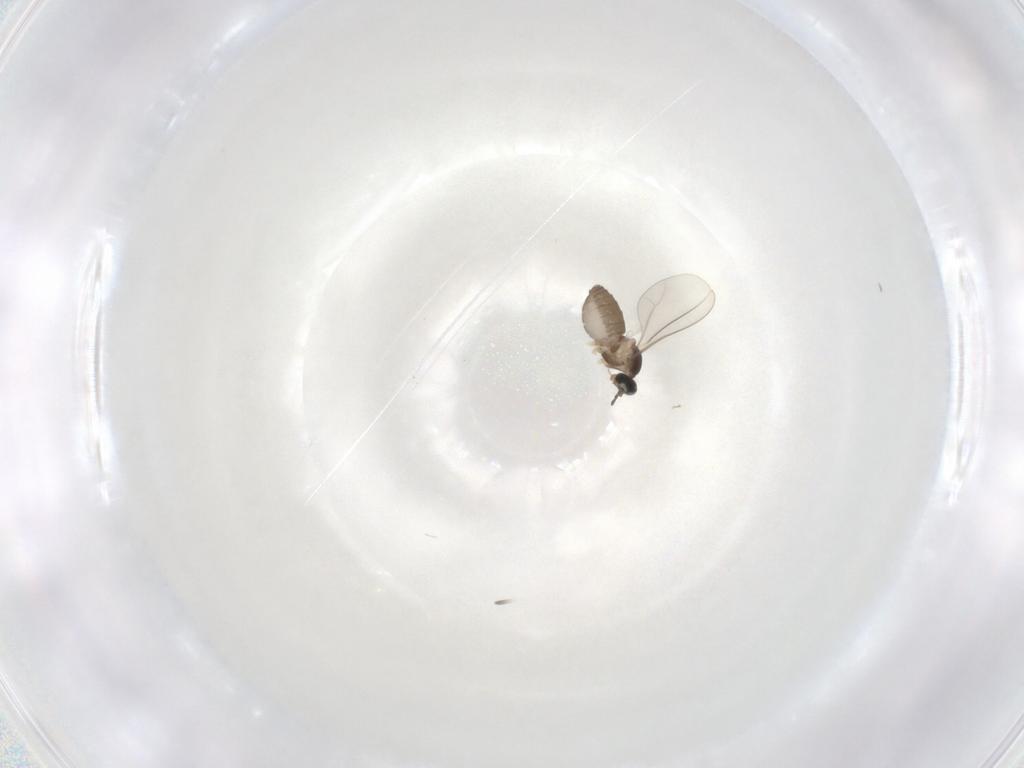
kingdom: Animalia
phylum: Arthropoda
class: Insecta
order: Diptera
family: Cecidomyiidae
